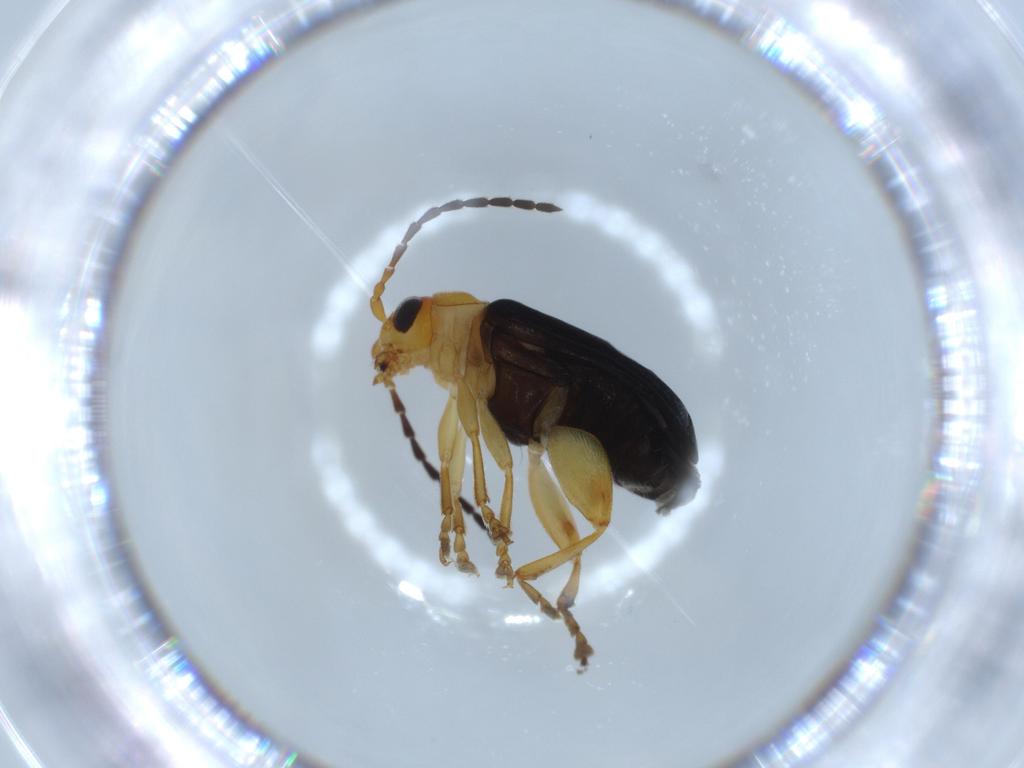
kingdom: Animalia
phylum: Arthropoda
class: Insecta
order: Coleoptera
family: Chrysomelidae
